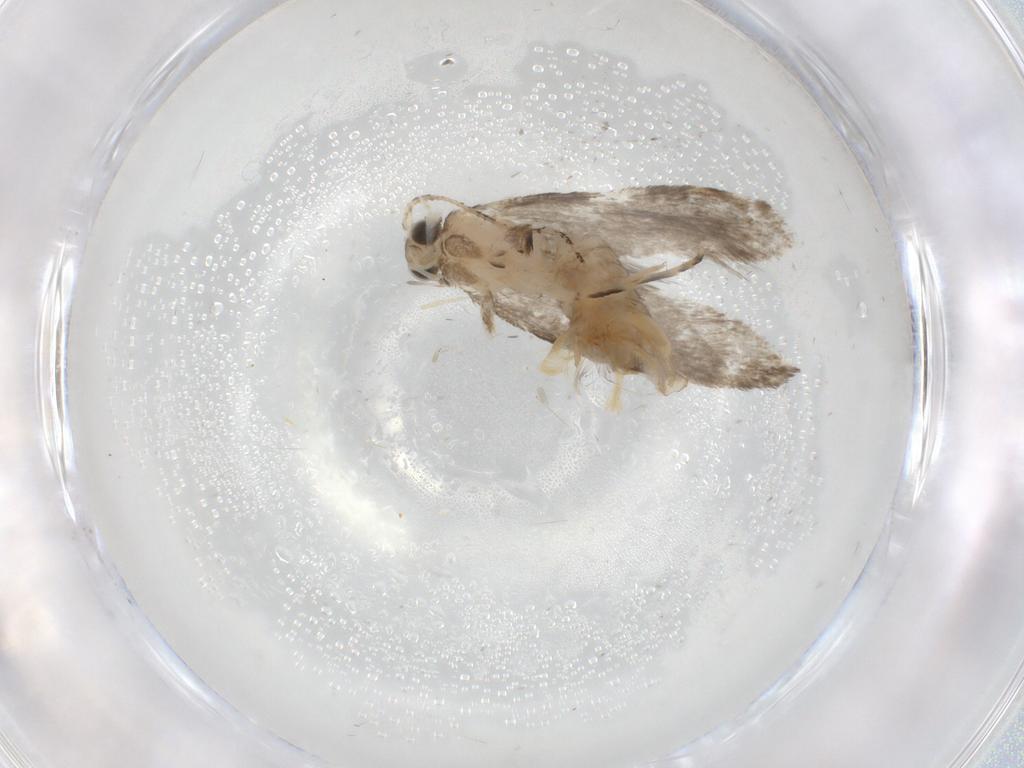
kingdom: Animalia
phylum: Arthropoda
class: Insecta
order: Lepidoptera
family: Tineidae
